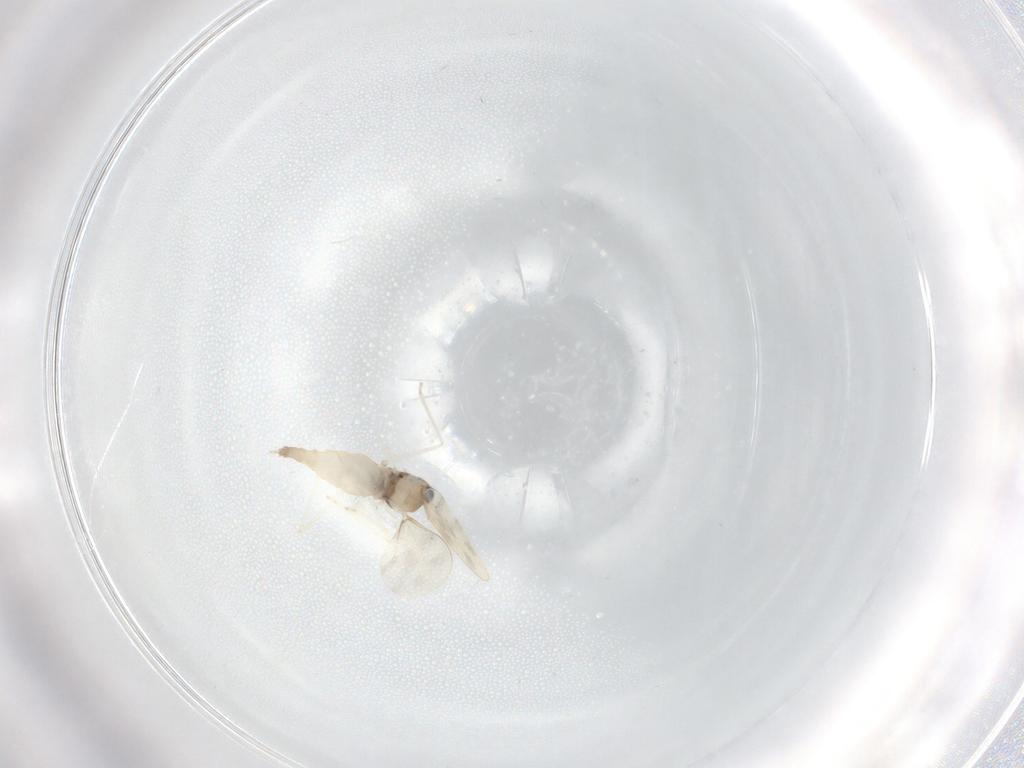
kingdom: Animalia
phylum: Arthropoda
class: Insecta
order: Diptera
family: Cecidomyiidae
